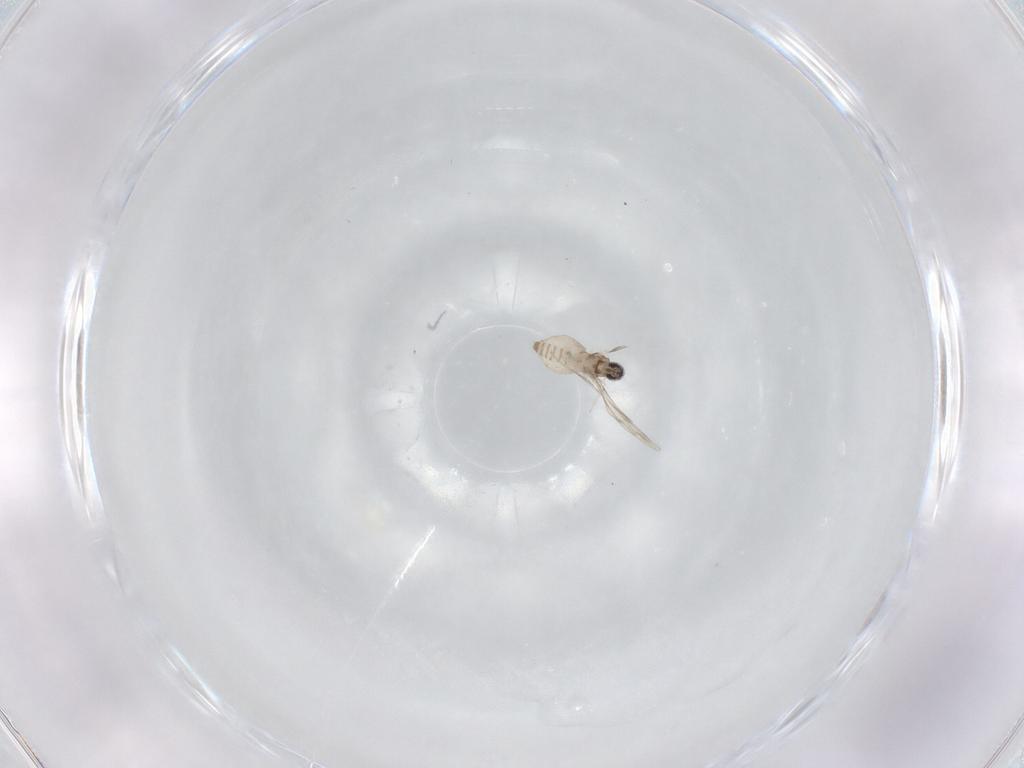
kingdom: Animalia
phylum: Arthropoda
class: Insecta
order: Diptera
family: Cecidomyiidae
